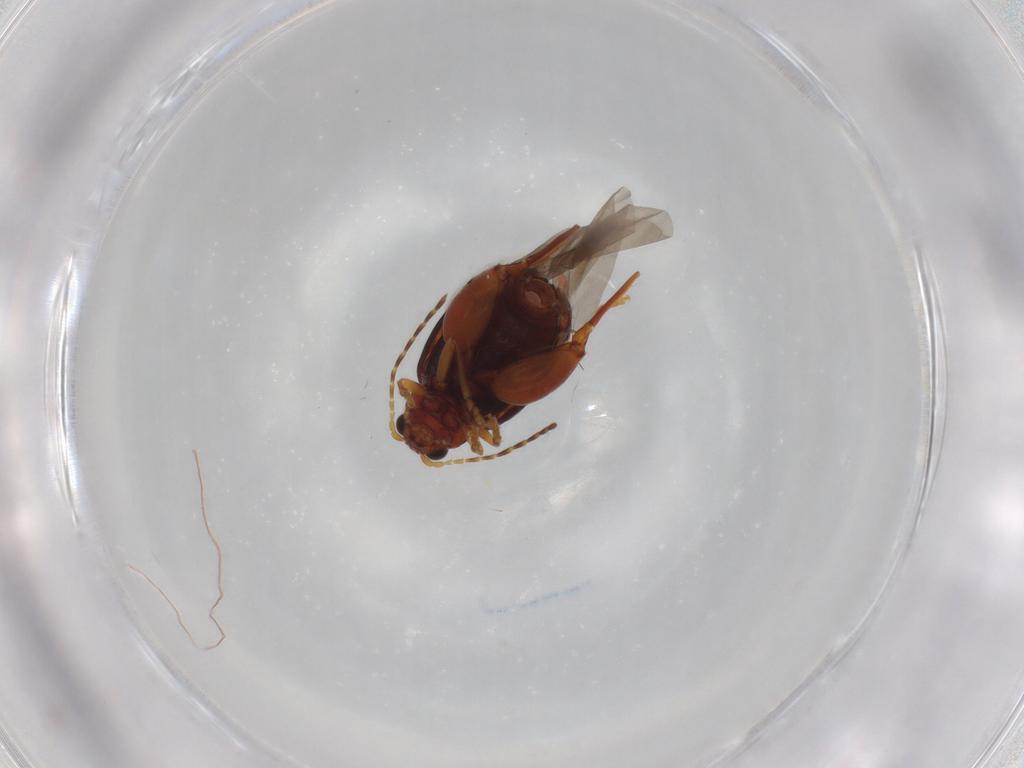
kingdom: Animalia
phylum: Arthropoda
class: Insecta
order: Coleoptera
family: Chrysomelidae
